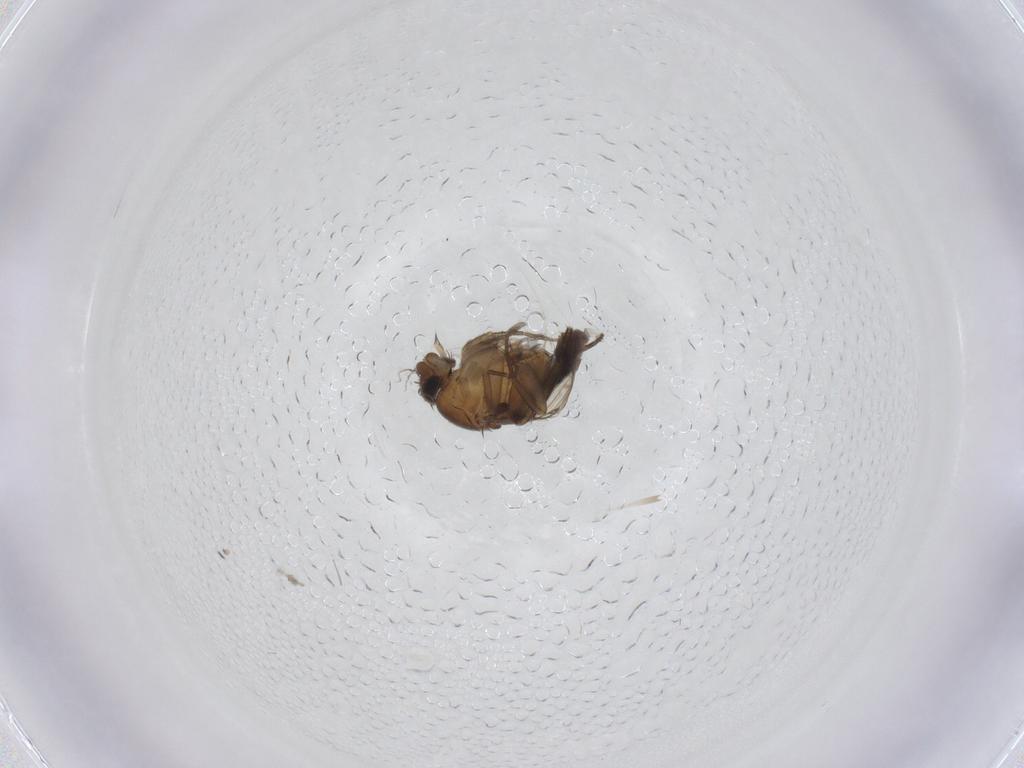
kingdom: Animalia
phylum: Arthropoda
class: Insecta
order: Diptera
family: Phoridae
